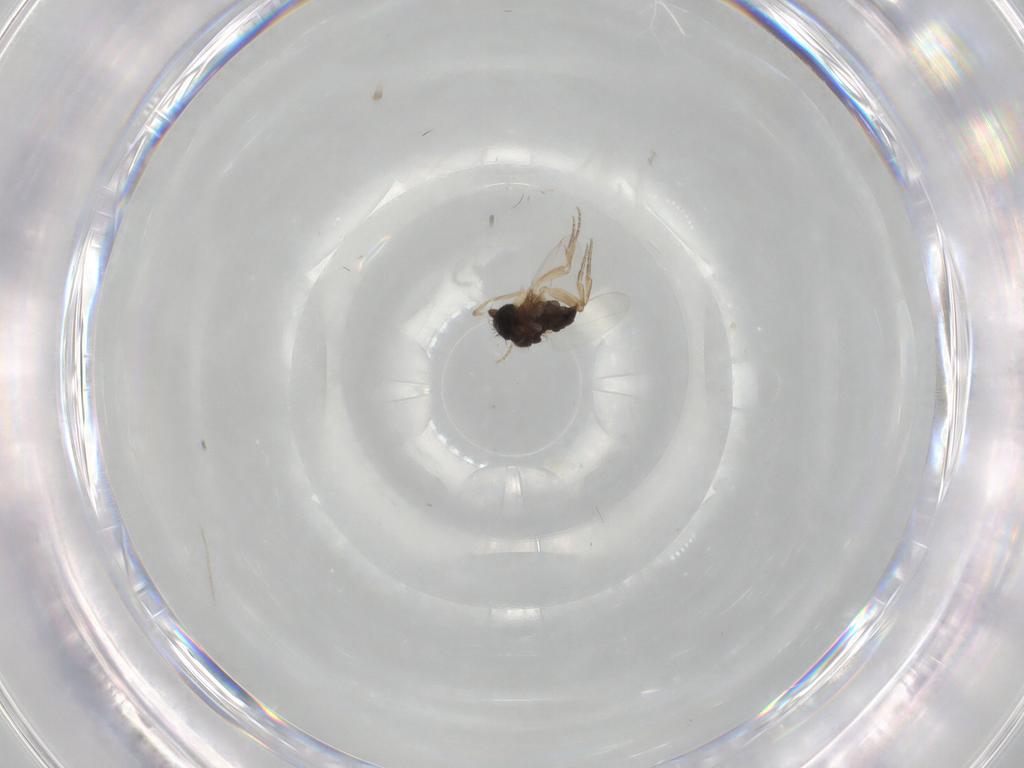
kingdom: Animalia
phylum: Arthropoda
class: Insecta
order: Diptera
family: Phoridae
